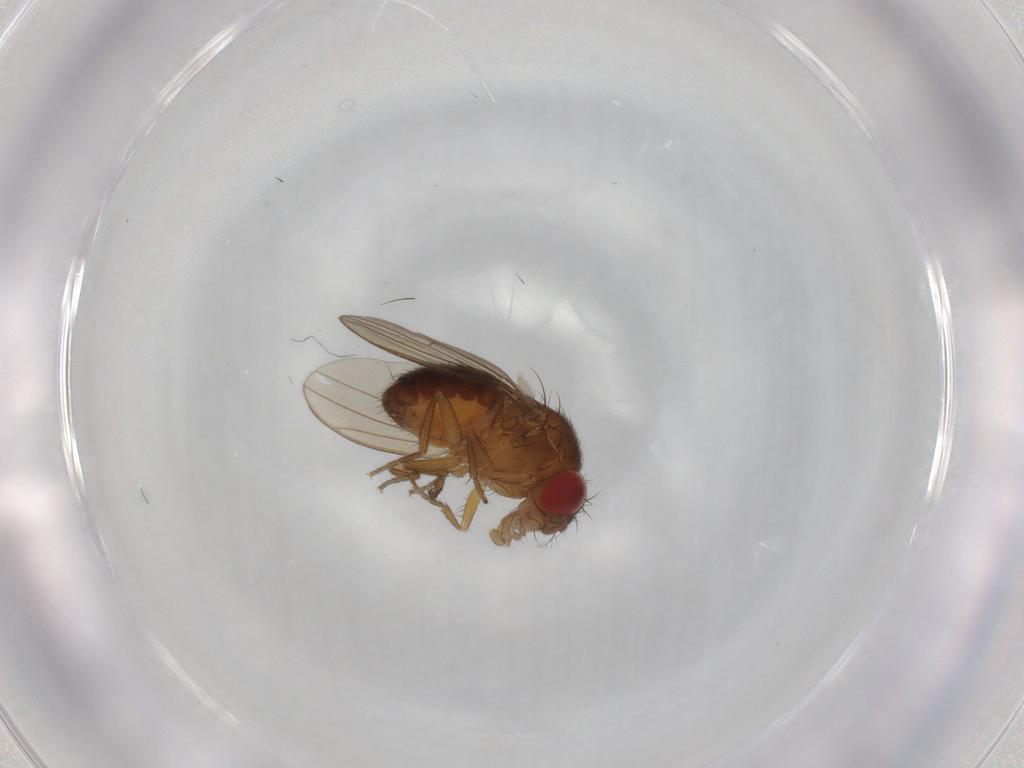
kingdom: Animalia
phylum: Arthropoda
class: Insecta
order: Diptera
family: Drosophilidae
